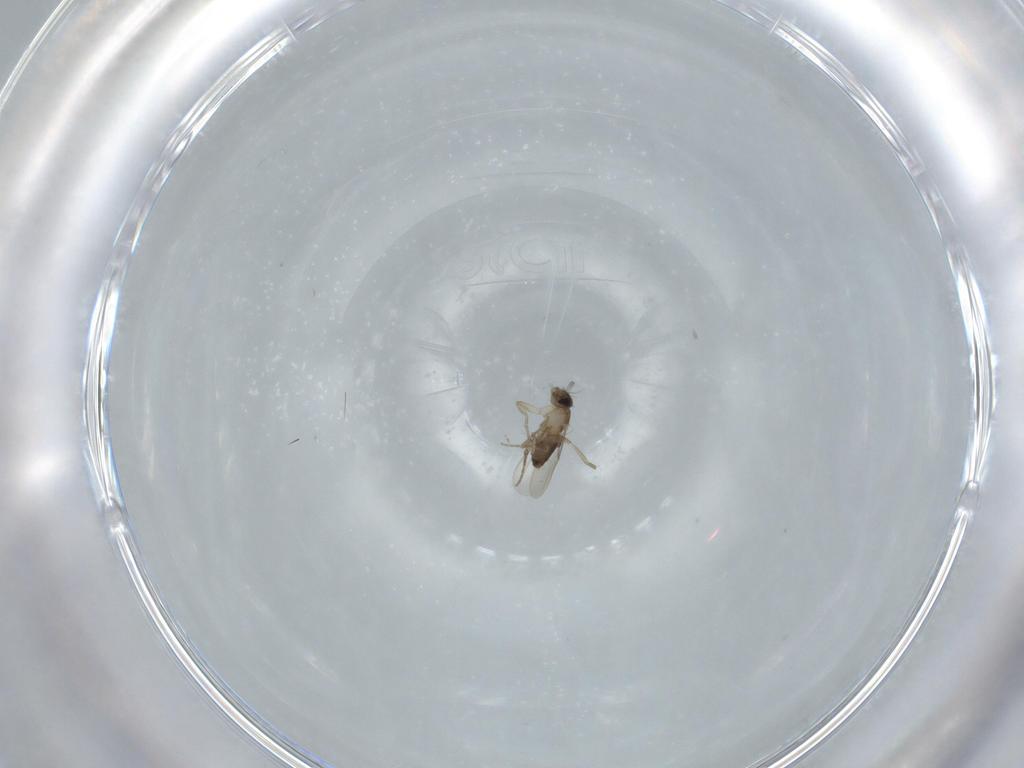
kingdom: Animalia
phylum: Arthropoda
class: Insecta
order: Diptera
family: Phoridae
